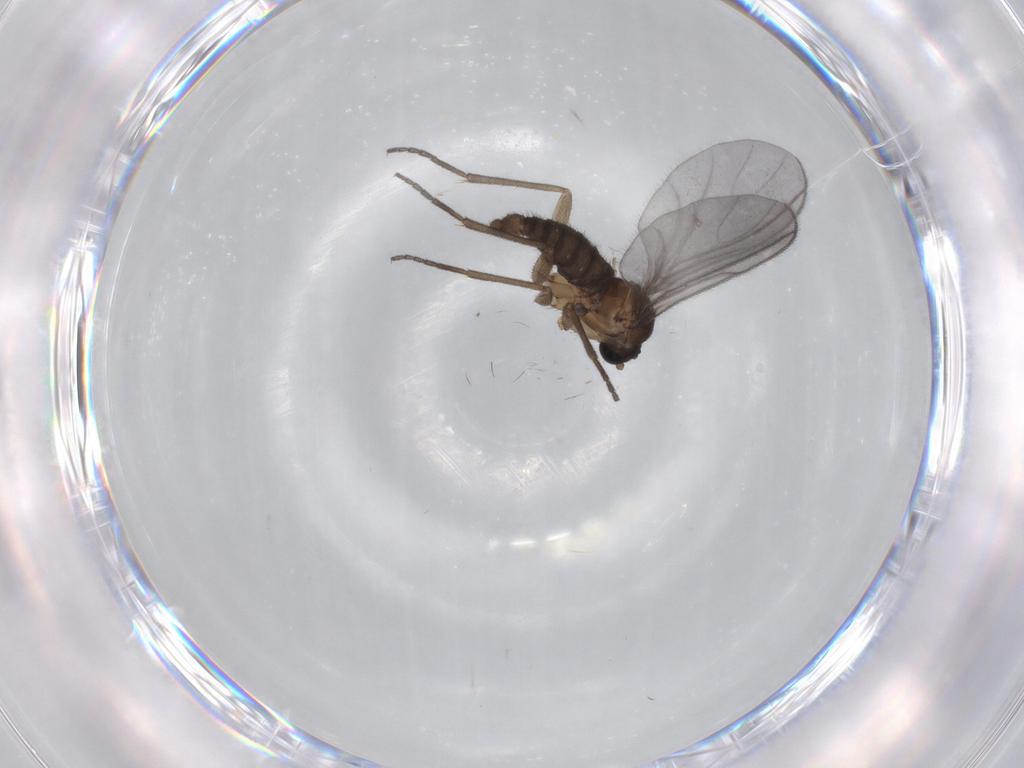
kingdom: Animalia
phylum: Arthropoda
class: Insecta
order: Diptera
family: Sciaridae
